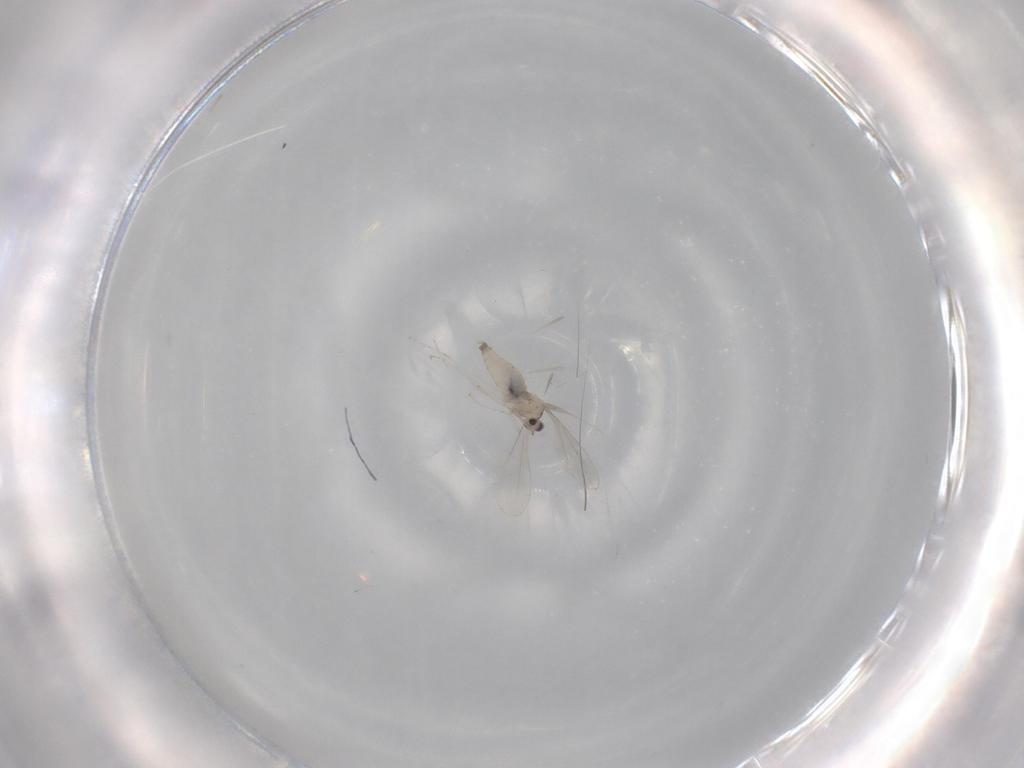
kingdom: Animalia
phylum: Arthropoda
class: Insecta
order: Diptera
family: Cecidomyiidae
